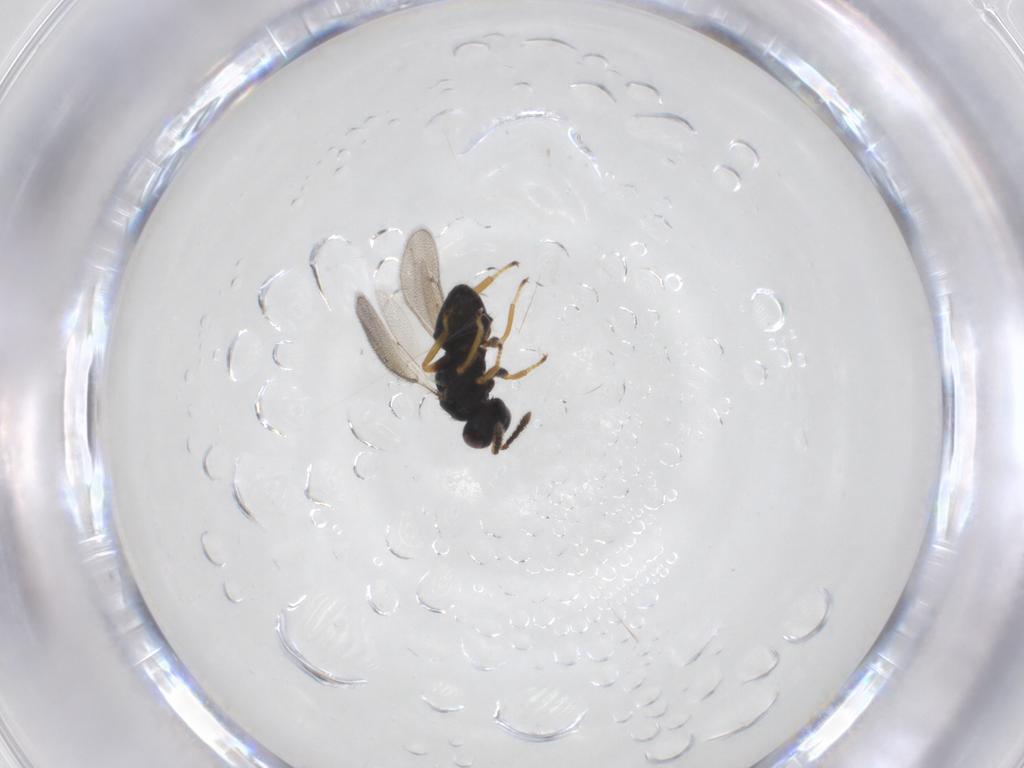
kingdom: Animalia
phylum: Arthropoda
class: Insecta
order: Hymenoptera
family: Eulophidae
